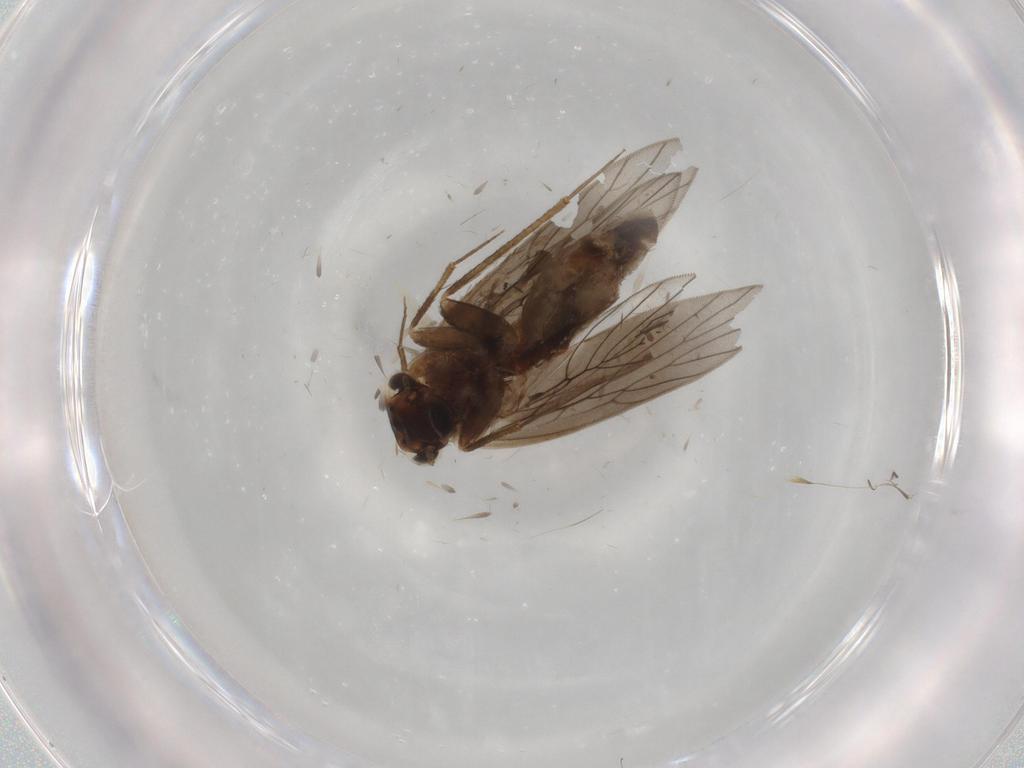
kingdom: Animalia
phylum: Arthropoda
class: Insecta
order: Psocodea
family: Lepidopsocidae
